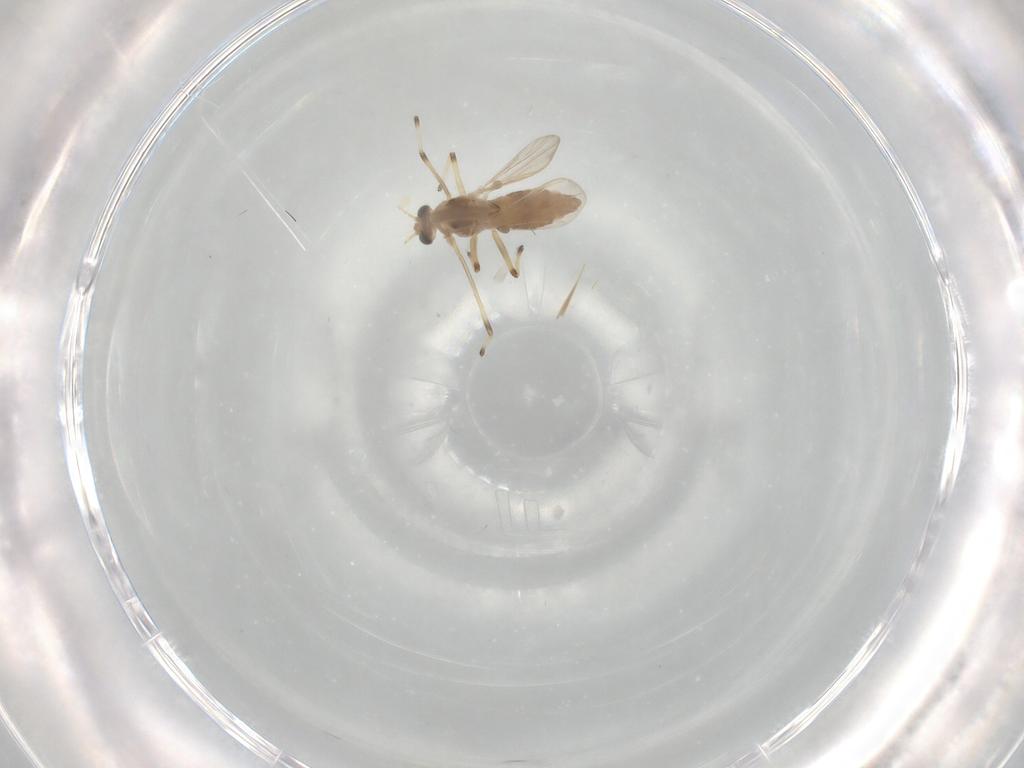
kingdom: Animalia
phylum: Arthropoda
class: Insecta
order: Diptera
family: Chironomidae
